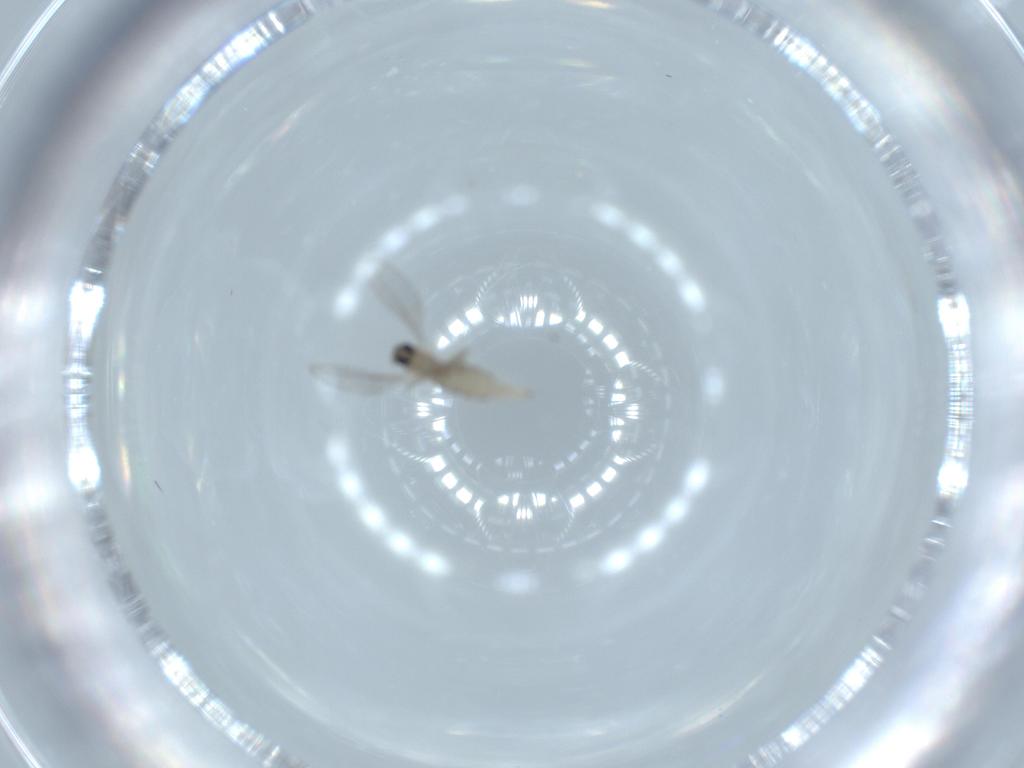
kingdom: Animalia
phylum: Arthropoda
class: Insecta
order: Diptera
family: Cecidomyiidae
